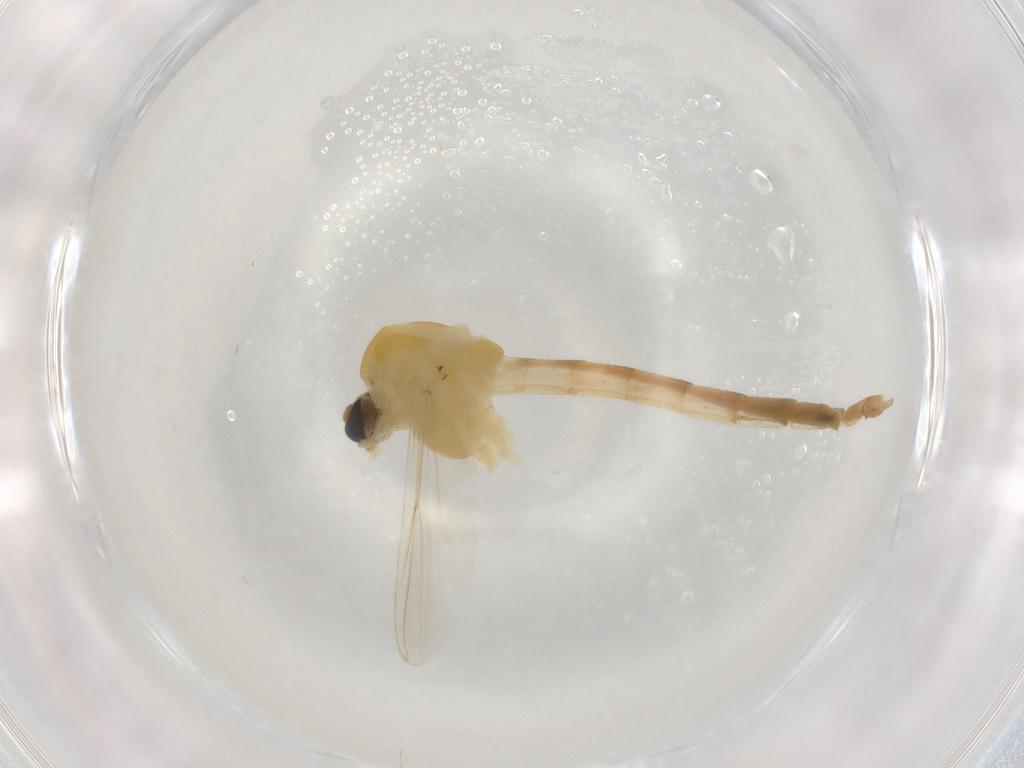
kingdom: Animalia
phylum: Arthropoda
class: Insecta
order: Diptera
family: Chironomidae
